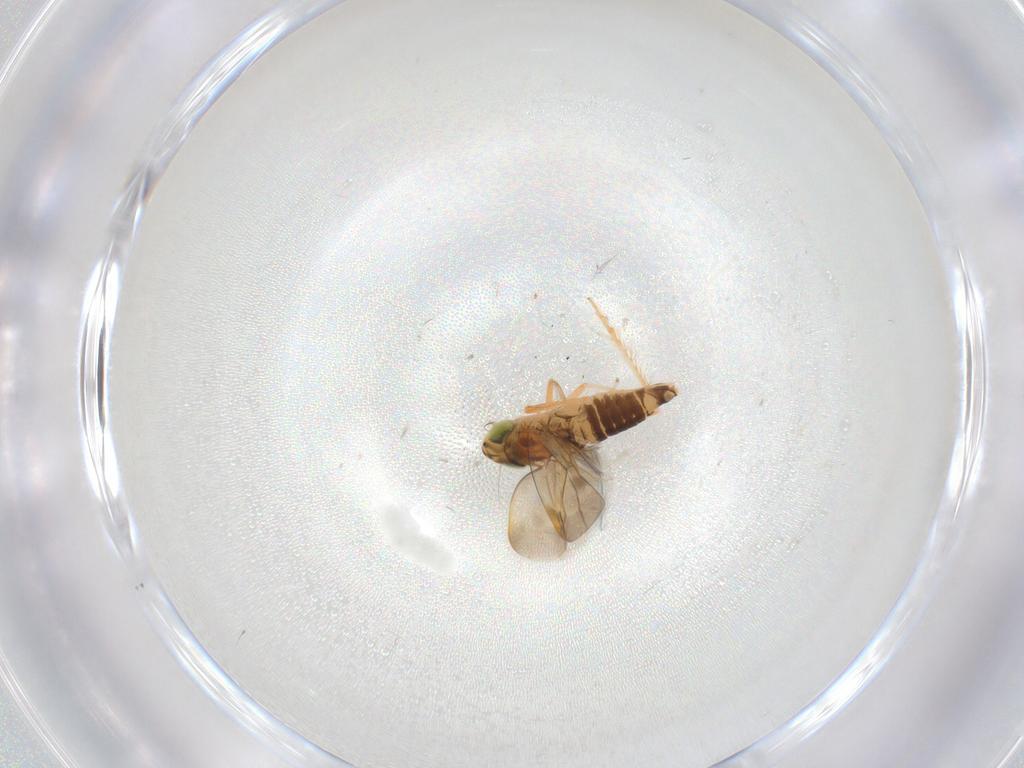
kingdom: Animalia
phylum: Arthropoda
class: Insecta
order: Hemiptera
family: Cicadellidae
